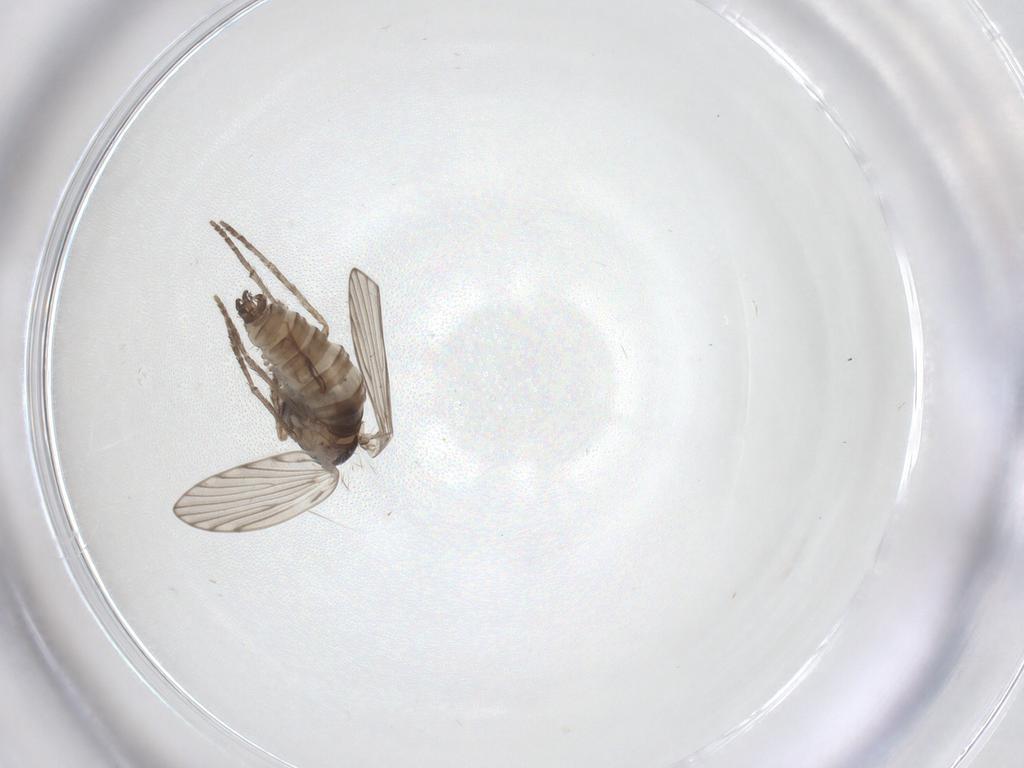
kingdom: Animalia
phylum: Arthropoda
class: Insecta
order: Diptera
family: Psychodidae
